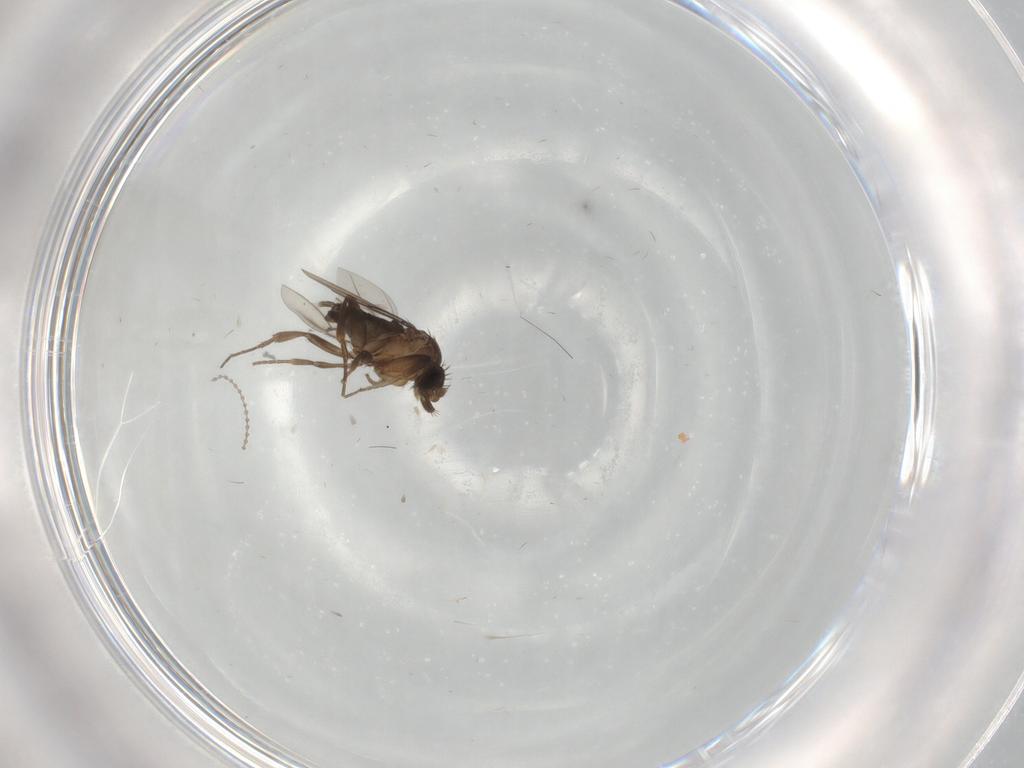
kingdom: Animalia
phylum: Arthropoda
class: Insecta
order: Diptera
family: Phoridae
